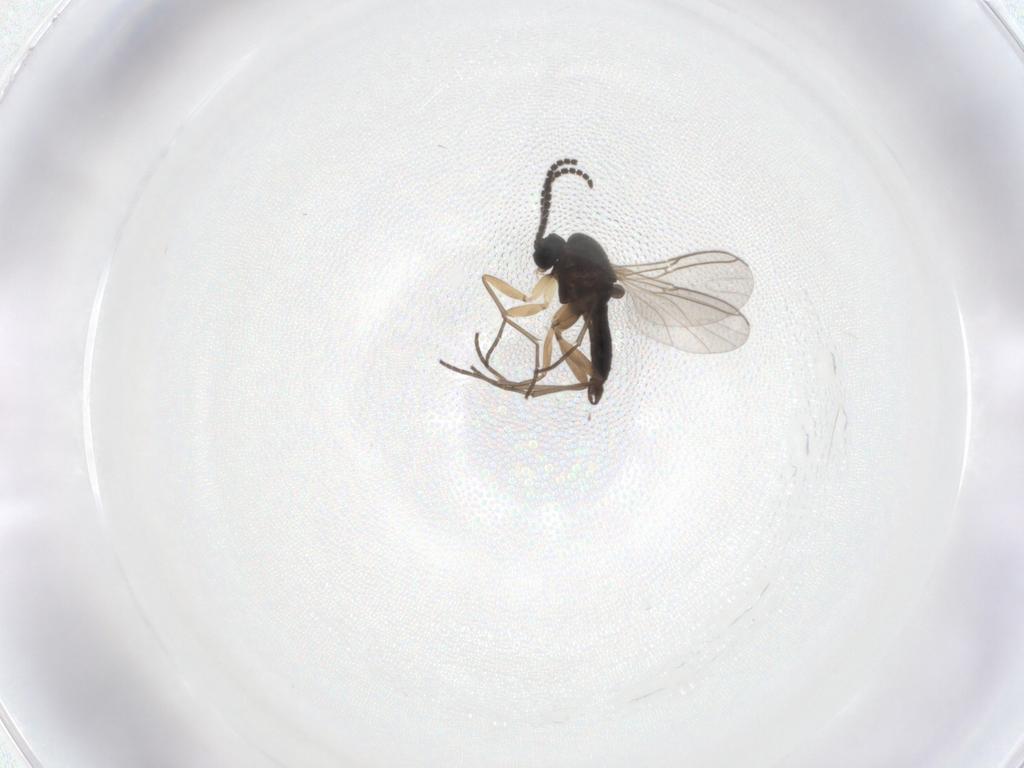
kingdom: Animalia
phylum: Arthropoda
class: Insecta
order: Diptera
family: Sciaridae
